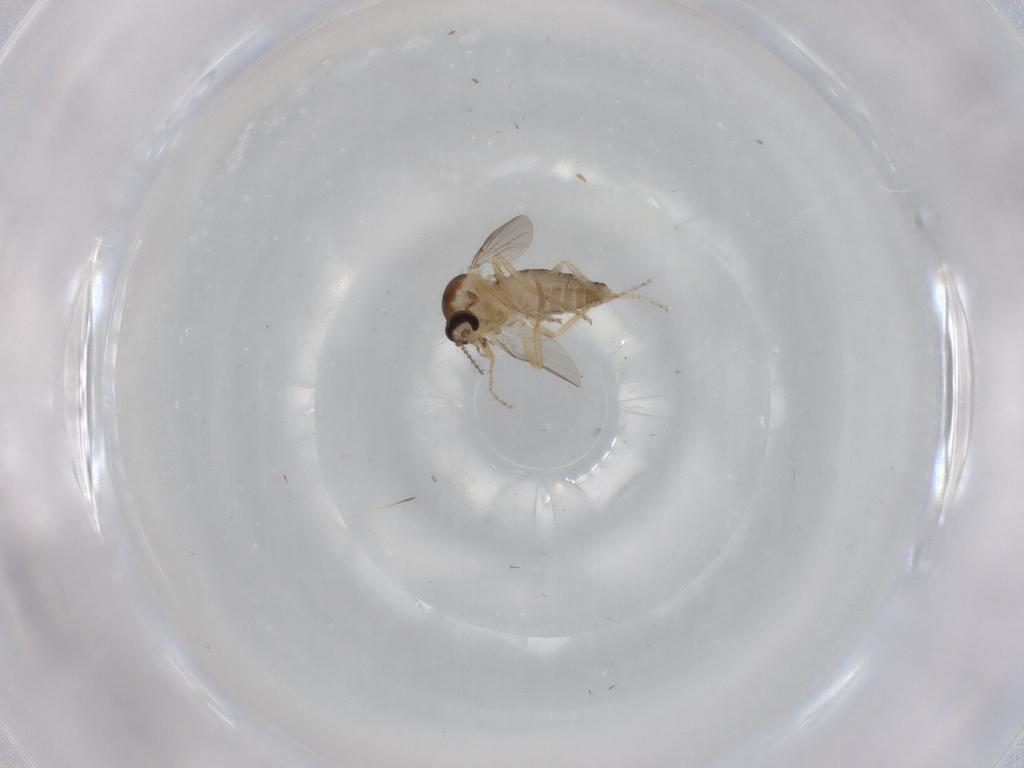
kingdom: Animalia
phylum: Arthropoda
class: Insecta
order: Diptera
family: Ceratopogonidae
